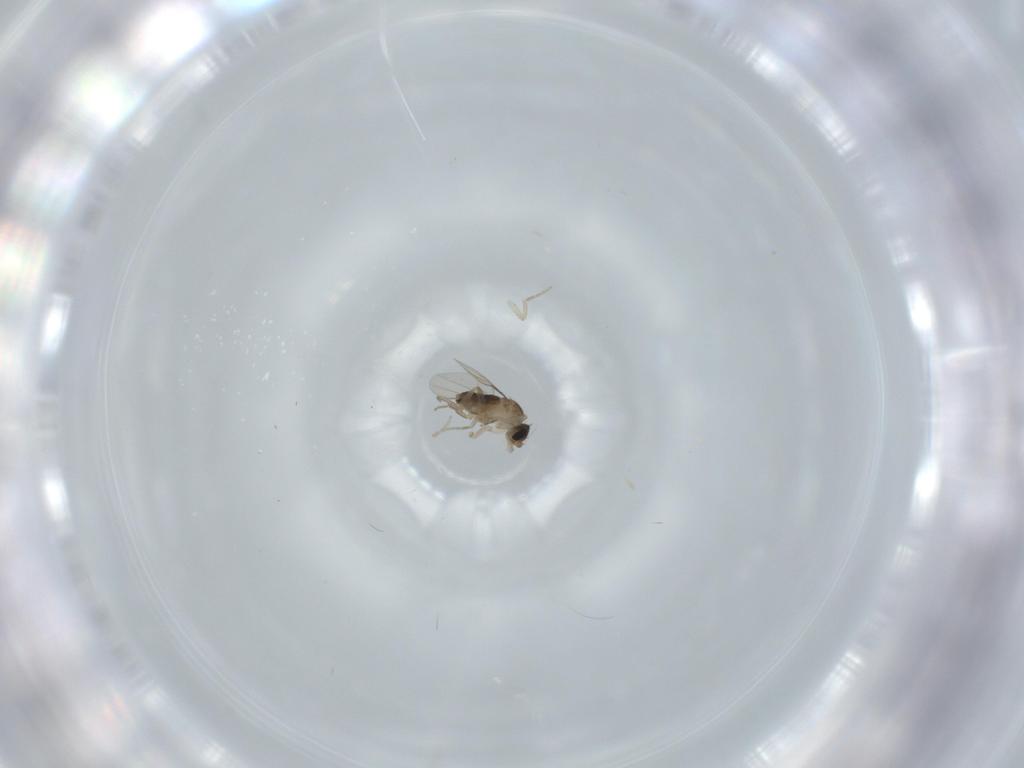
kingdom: Animalia
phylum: Arthropoda
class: Insecta
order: Diptera
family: Phoridae
